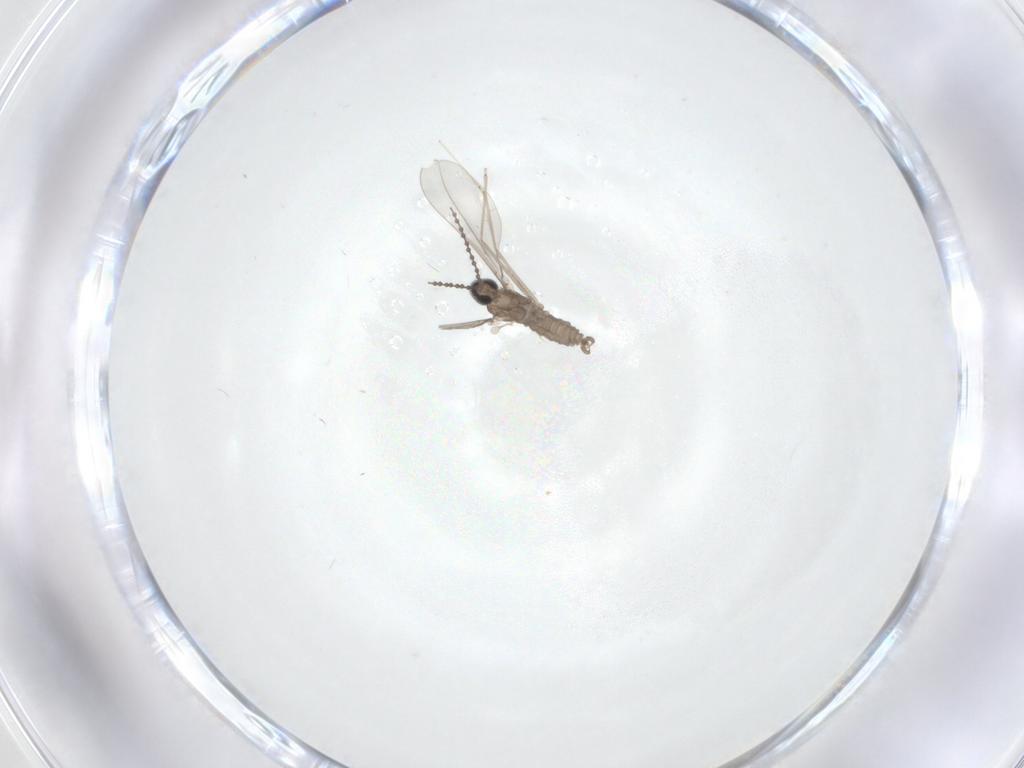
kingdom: Animalia
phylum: Arthropoda
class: Insecta
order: Diptera
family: Cecidomyiidae
